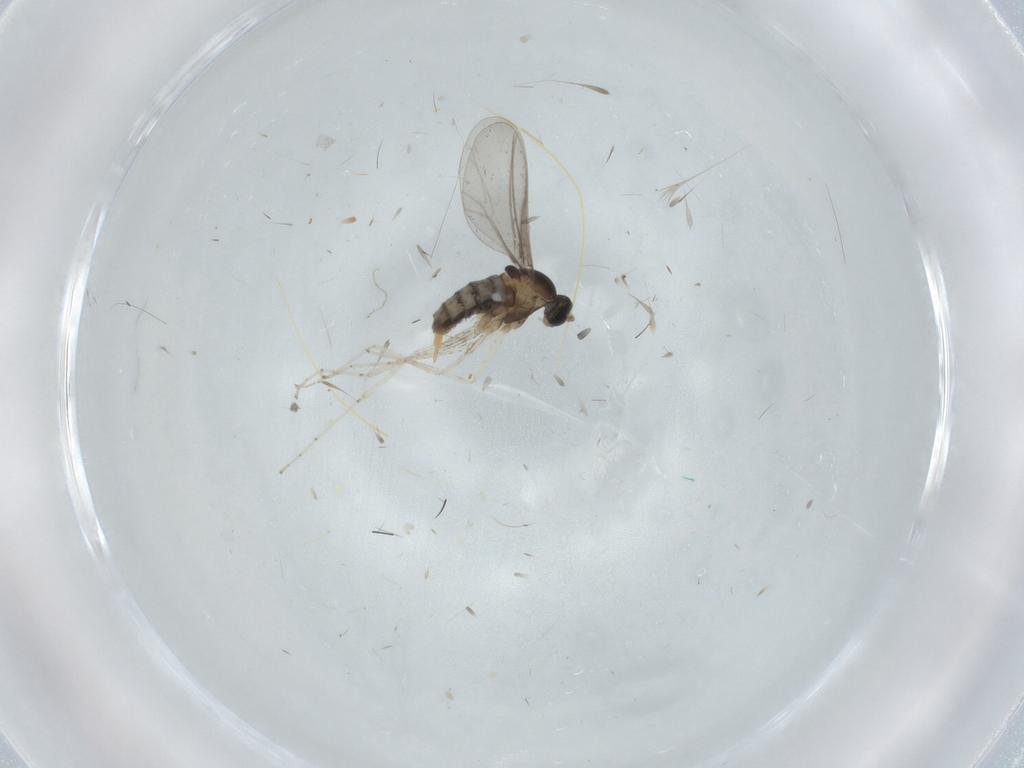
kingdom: Animalia
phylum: Arthropoda
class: Insecta
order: Diptera
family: Cecidomyiidae
